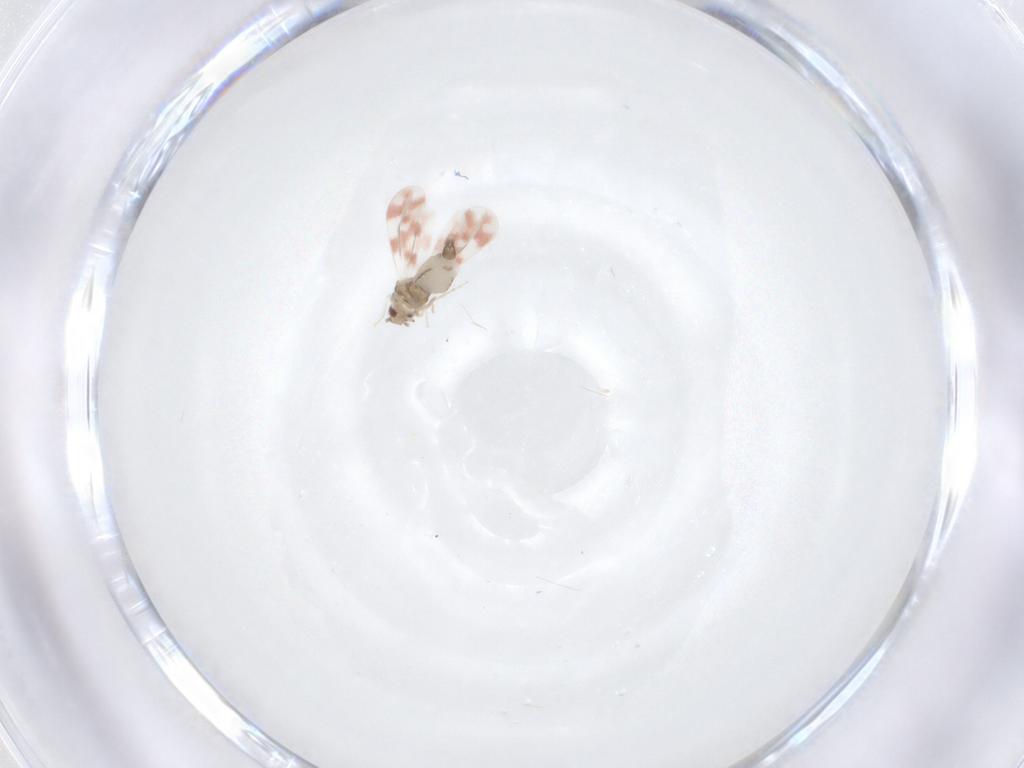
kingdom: Animalia
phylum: Arthropoda
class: Insecta
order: Hemiptera
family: Aleyrodidae
